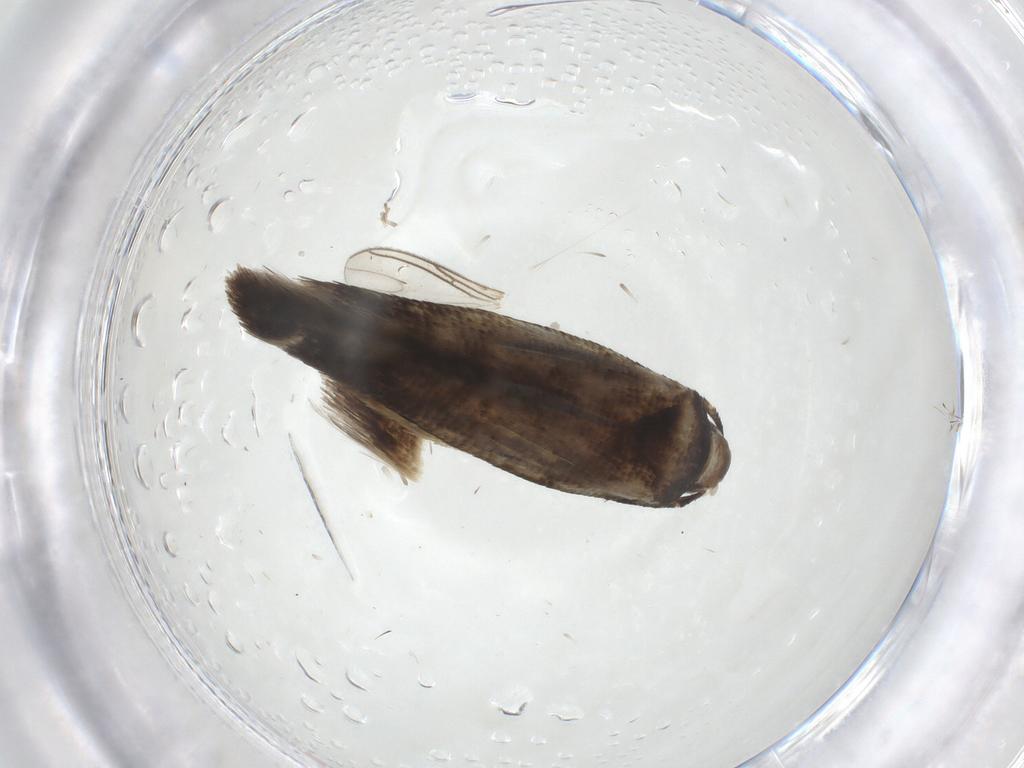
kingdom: Animalia
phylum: Arthropoda
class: Insecta
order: Lepidoptera
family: Cosmopterigidae
